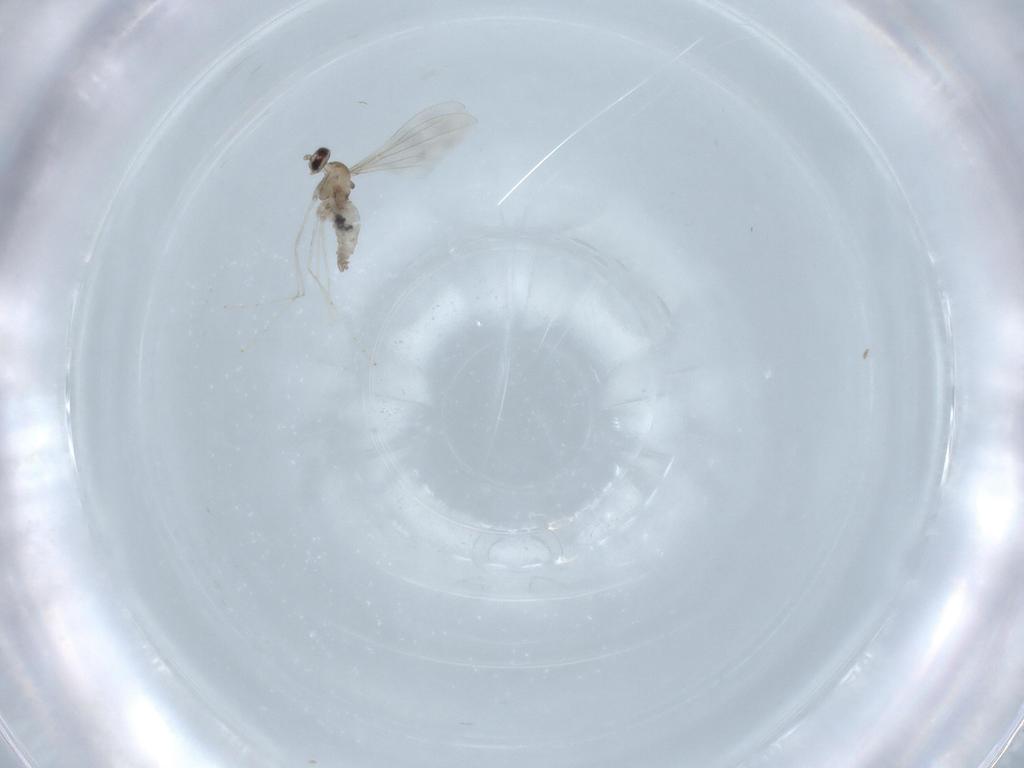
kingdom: Animalia
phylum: Arthropoda
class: Insecta
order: Diptera
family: Cecidomyiidae
